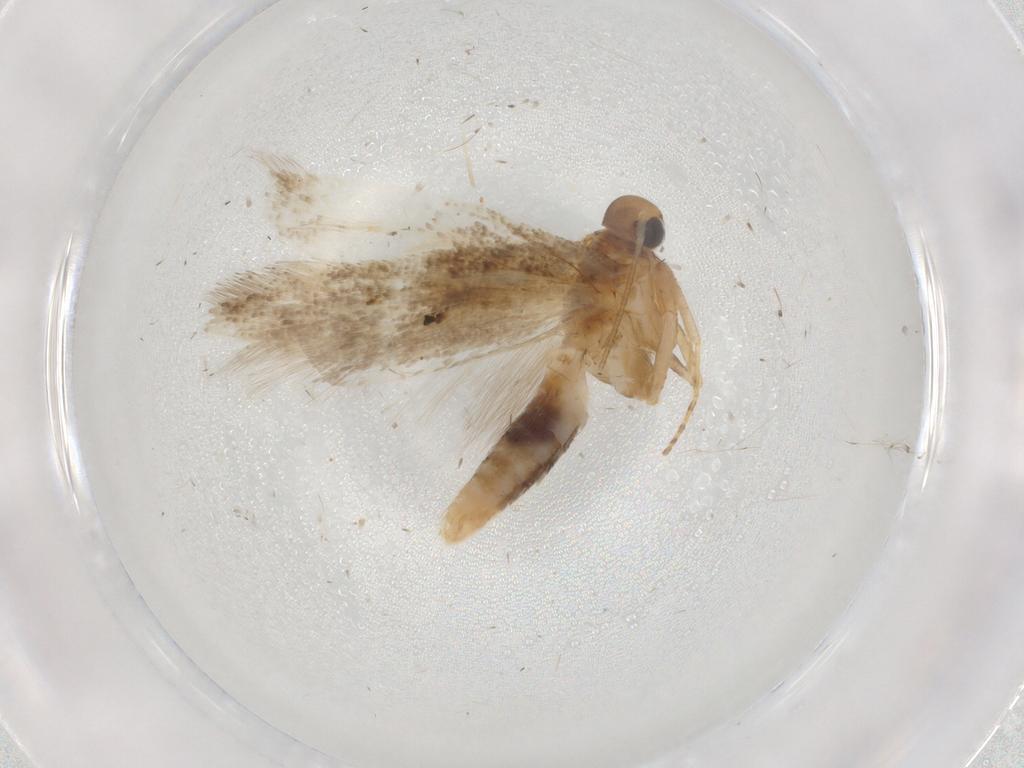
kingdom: Animalia
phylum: Arthropoda
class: Insecta
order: Lepidoptera
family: Gelechiidae
